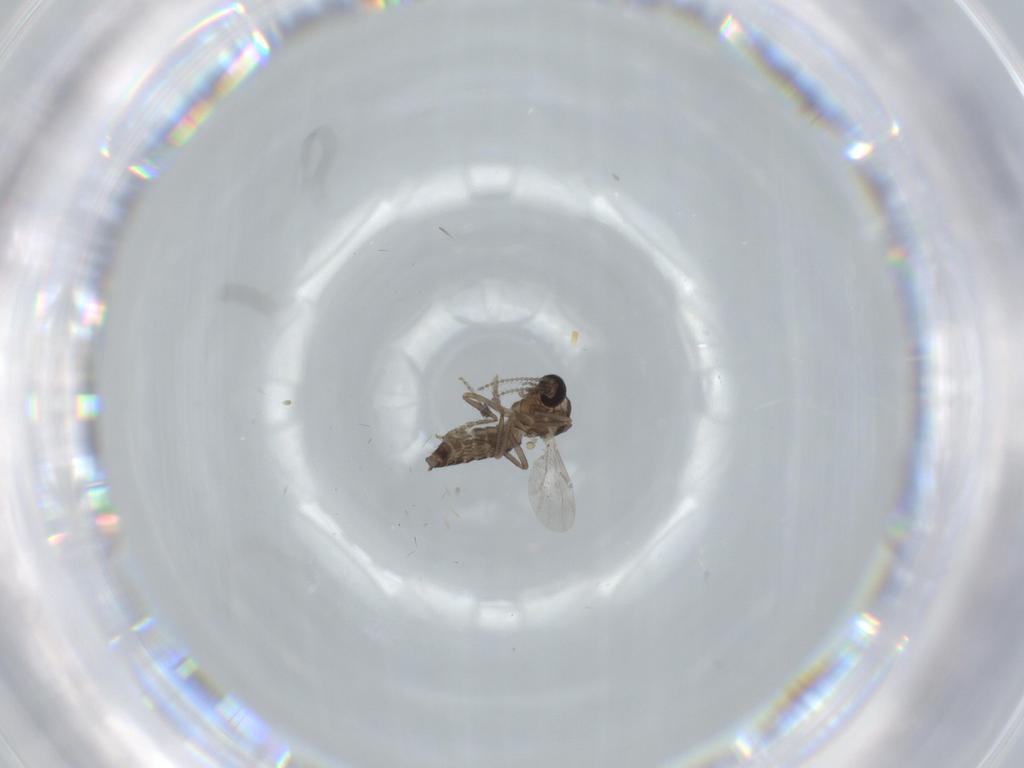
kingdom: Animalia
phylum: Arthropoda
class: Insecta
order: Diptera
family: Ceratopogonidae
